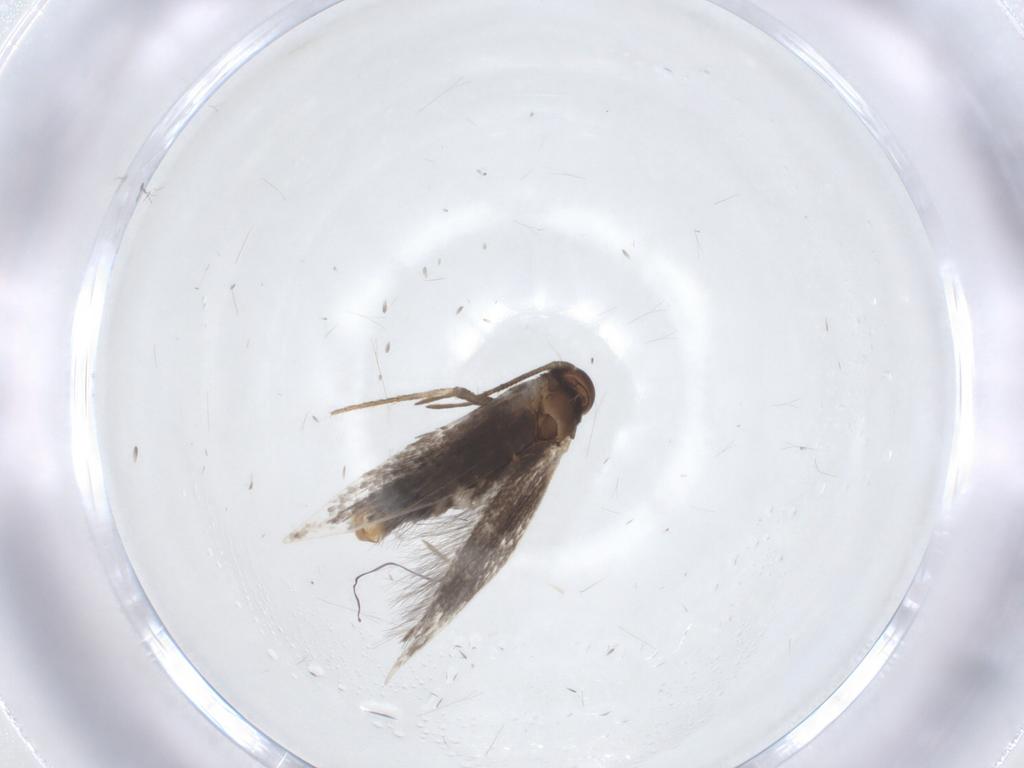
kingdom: Animalia
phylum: Arthropoda
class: Insecta
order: Lepidoptera
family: Elachistidae
